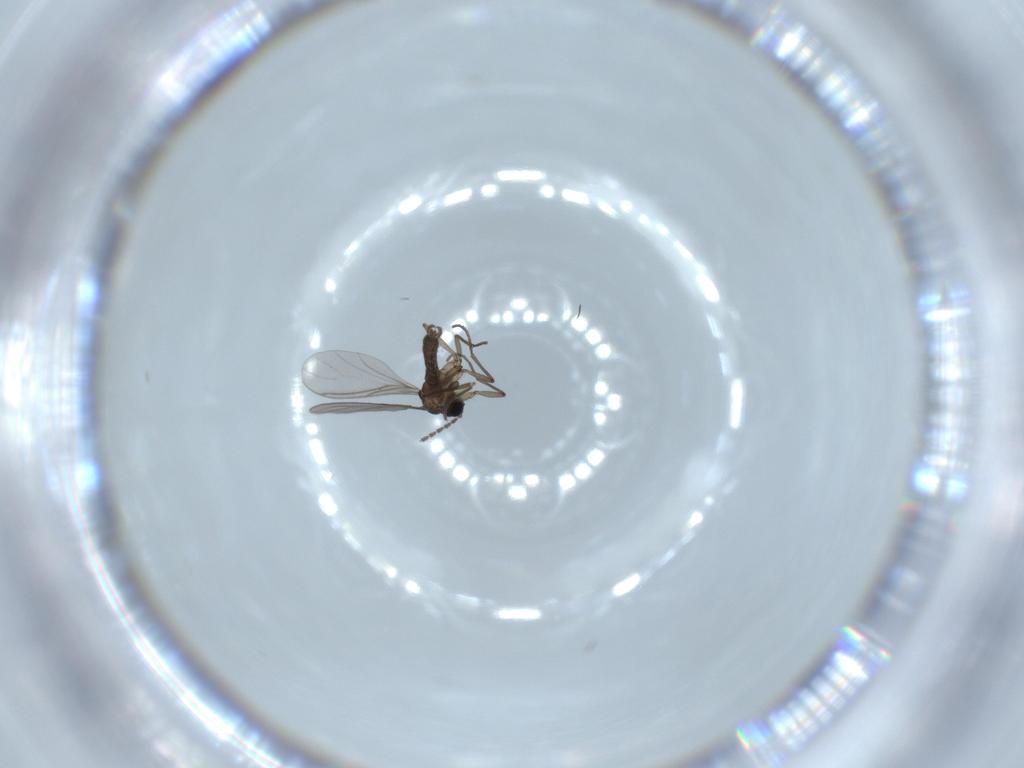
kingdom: Animalia
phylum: Arthropoda
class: Insecta
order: Diptera
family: Sciaridae
